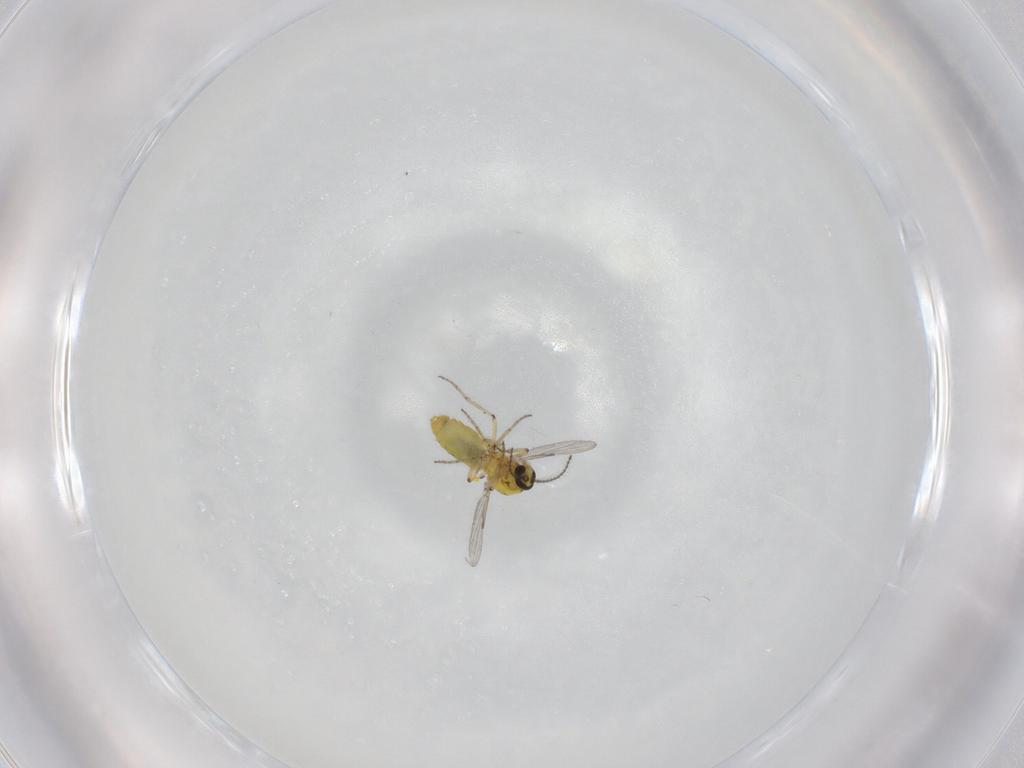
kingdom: Animalia
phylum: Arthropoda
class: Insecta
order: Diptera
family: Ceratopogonidae
